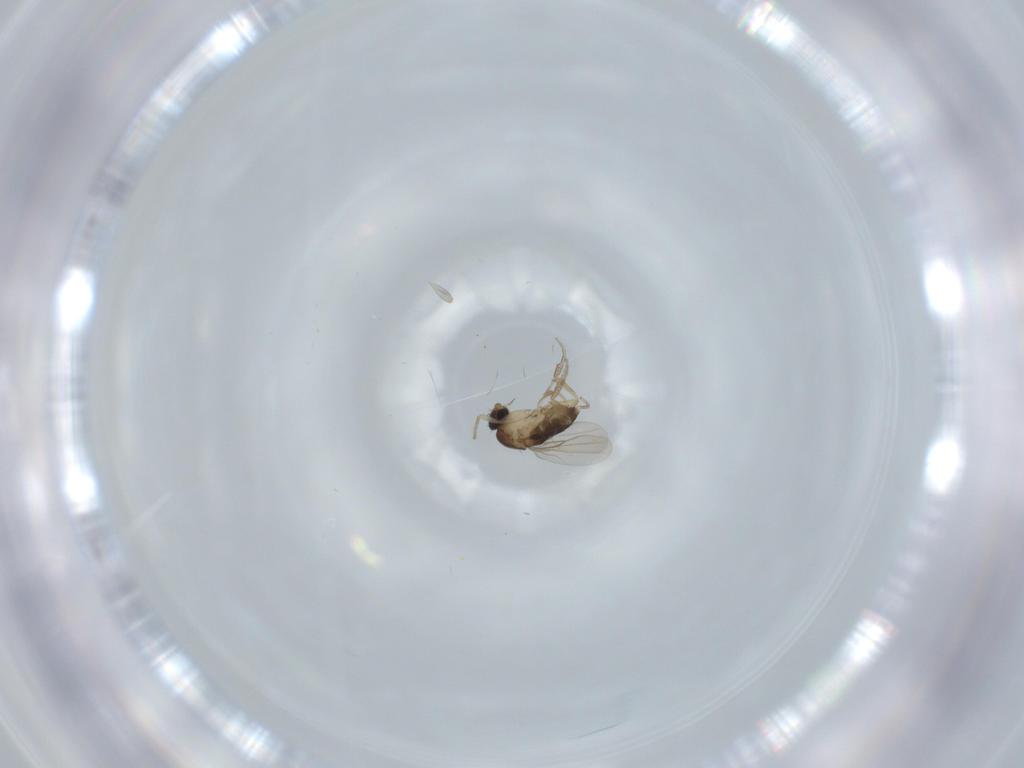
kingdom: Animalia
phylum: Arthropoda
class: Insecta
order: Diptera
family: Phoridae
